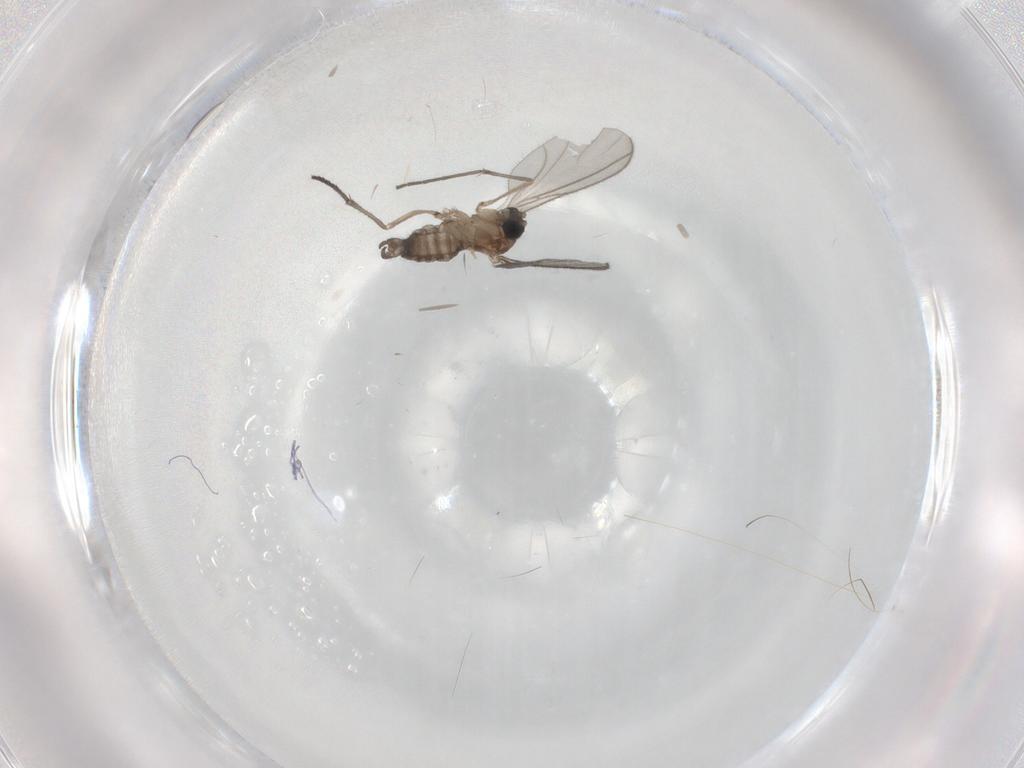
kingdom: Animalia
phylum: Arthropoda
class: Insecta
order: Diptera
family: Sciaridae
